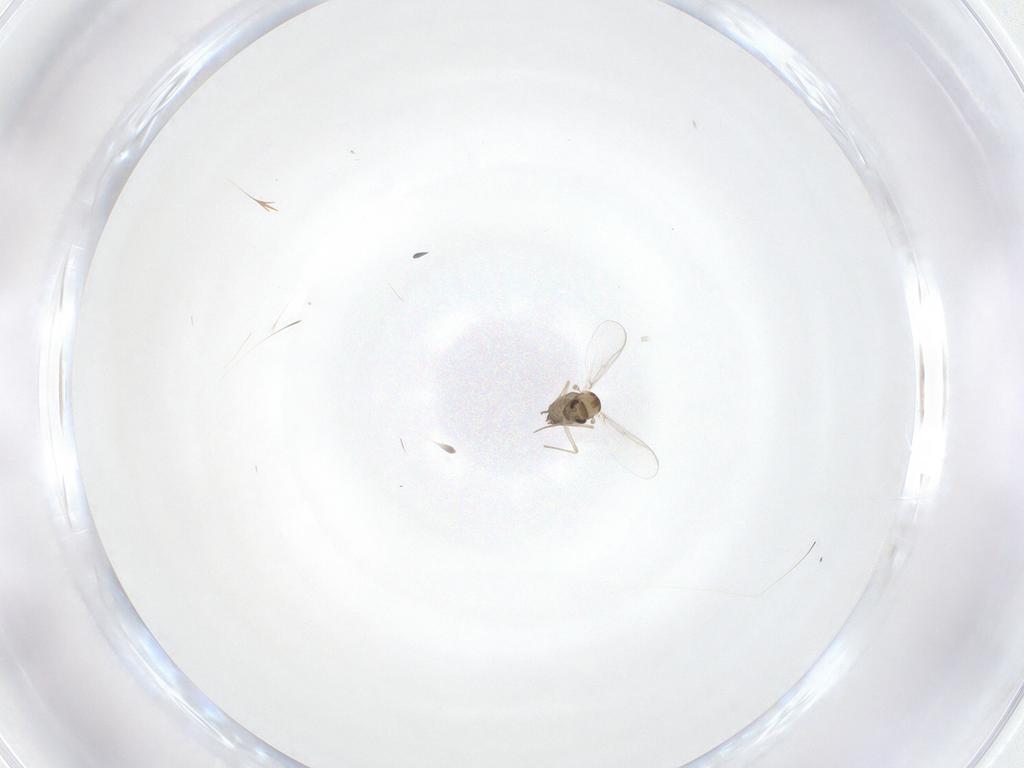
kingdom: Animalia
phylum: Arthropoda
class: Insecta
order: Diptera
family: Chironomidae
